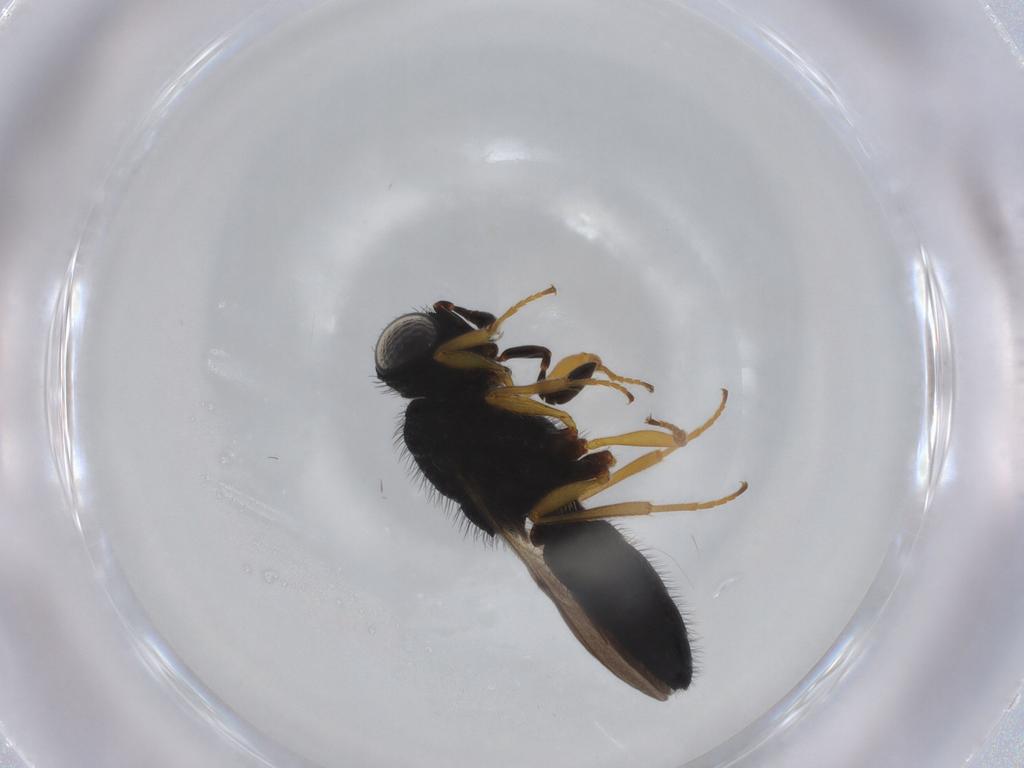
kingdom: Animalia
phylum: Arthropoda
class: Insecta
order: Hymenoptera
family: Scelionidae
